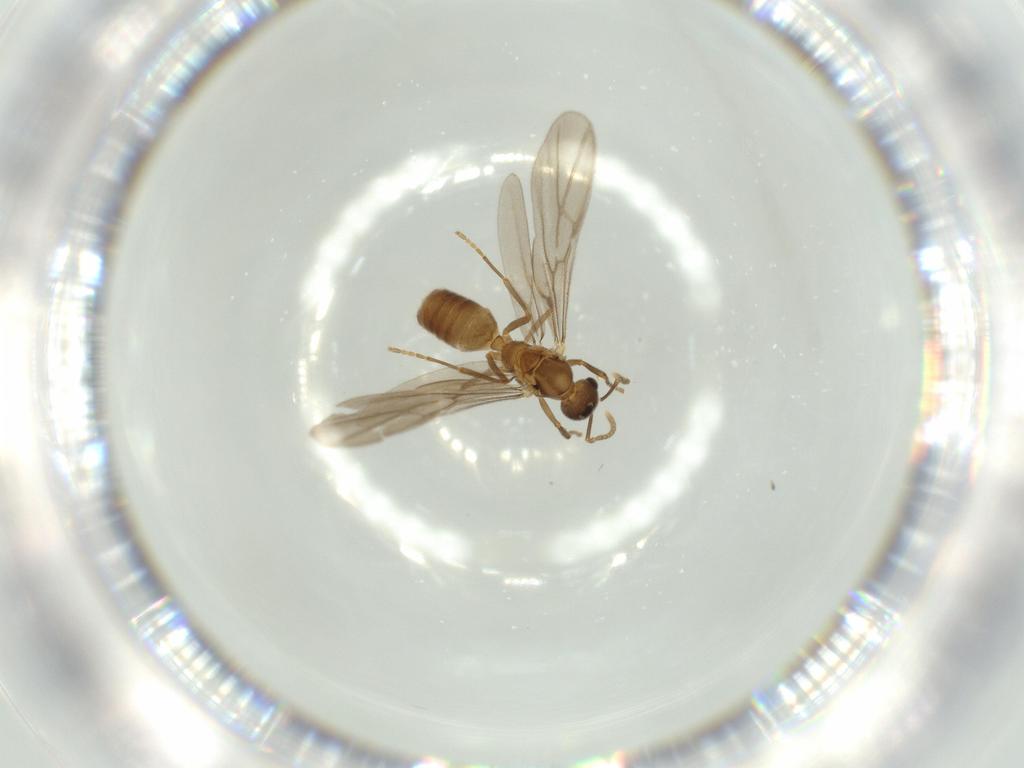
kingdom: Animalia
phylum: Arthropoda
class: Insecta
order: Hymenoptera
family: Formicidae
